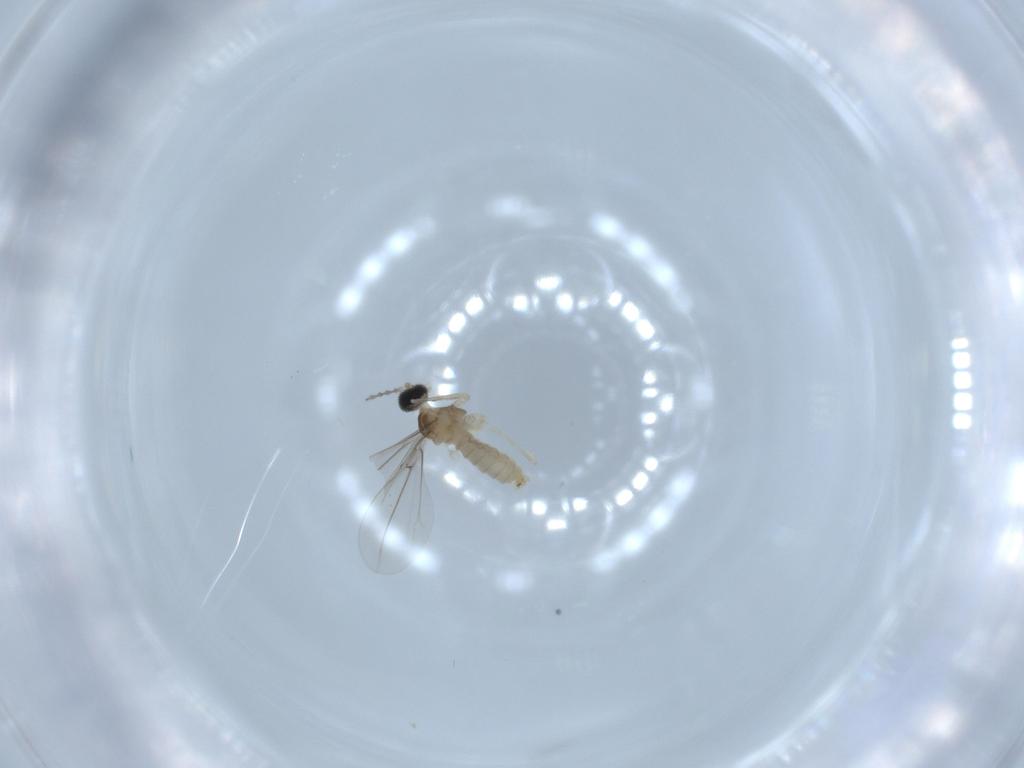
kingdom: Animalia
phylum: Arthropoda
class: Insecta
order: Diptera
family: Cecidomyiidae
